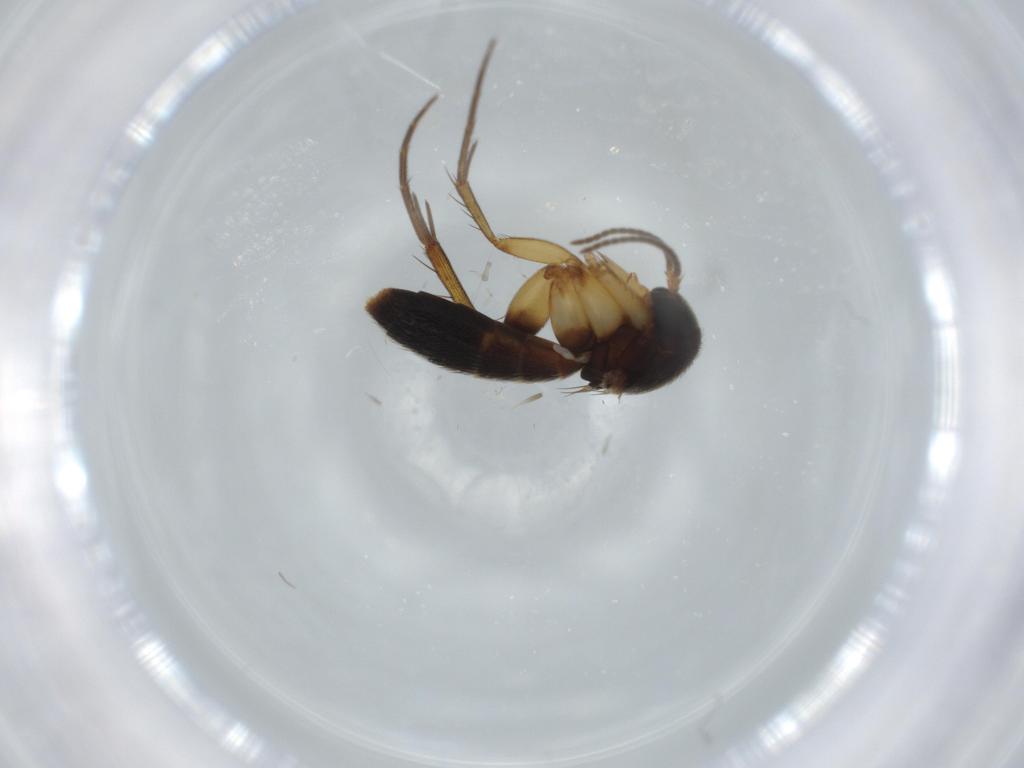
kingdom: Animalia
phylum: Arthropoda
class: Insecta
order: Diptera
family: Mycetophilidae
